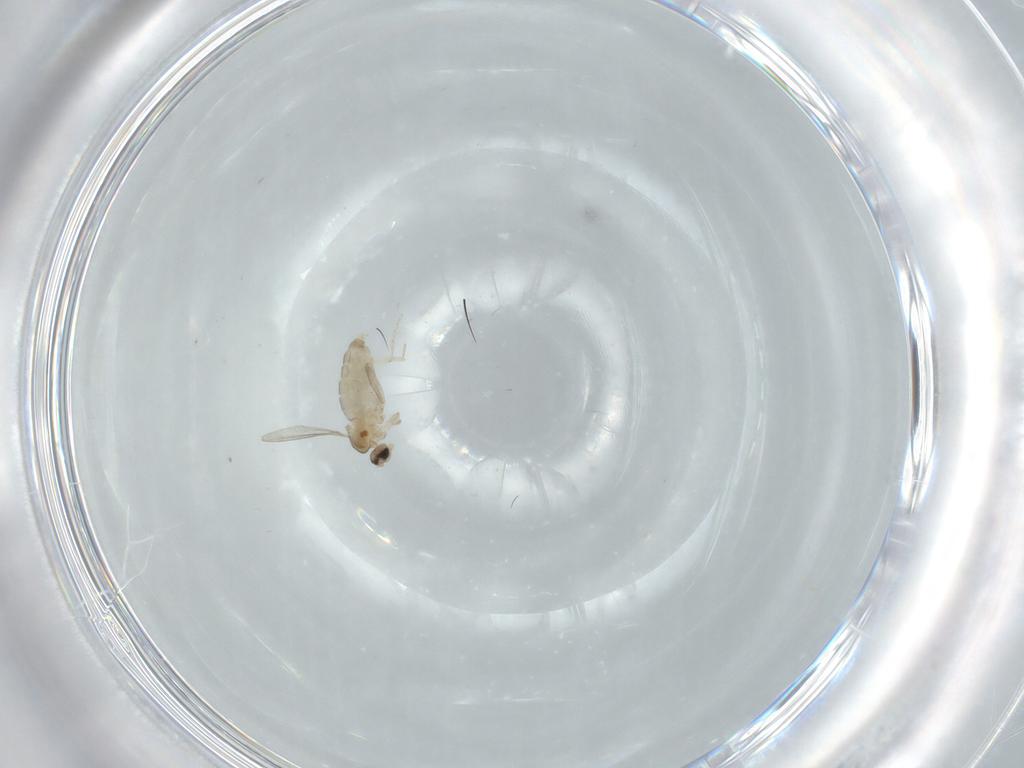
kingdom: Animalia
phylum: Arthropoda
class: Insecta
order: Diptera
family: Cecidomyiidae
